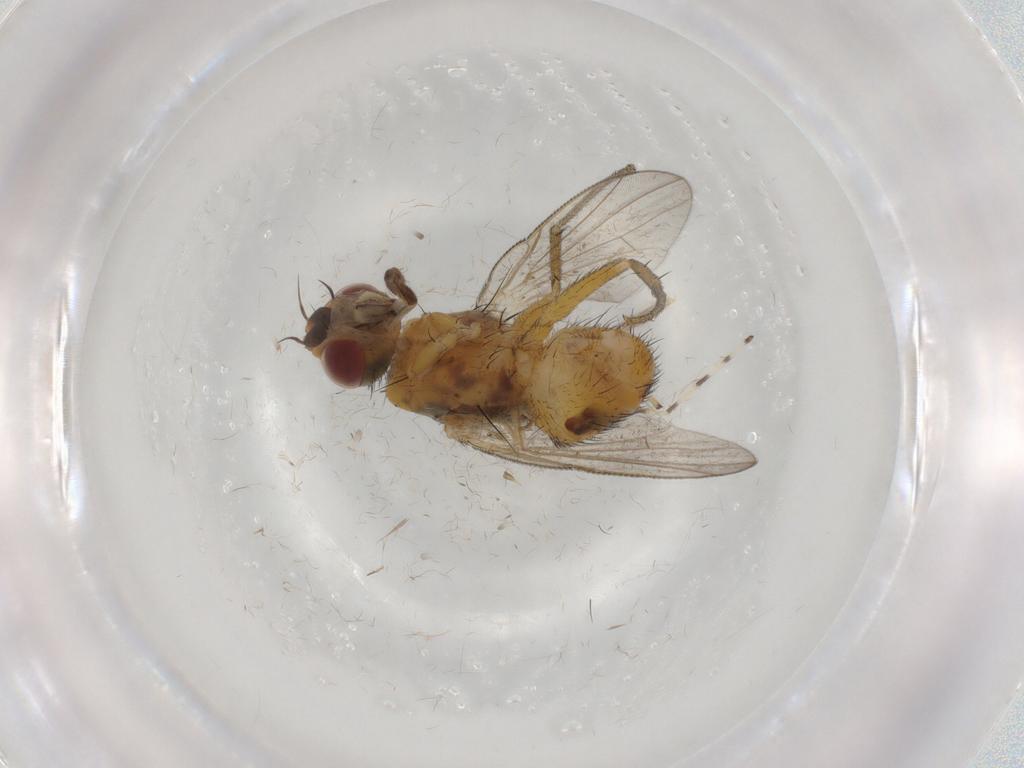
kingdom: Animalia
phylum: Arthropoda
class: Insecta
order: Diptera
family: Muscidae
